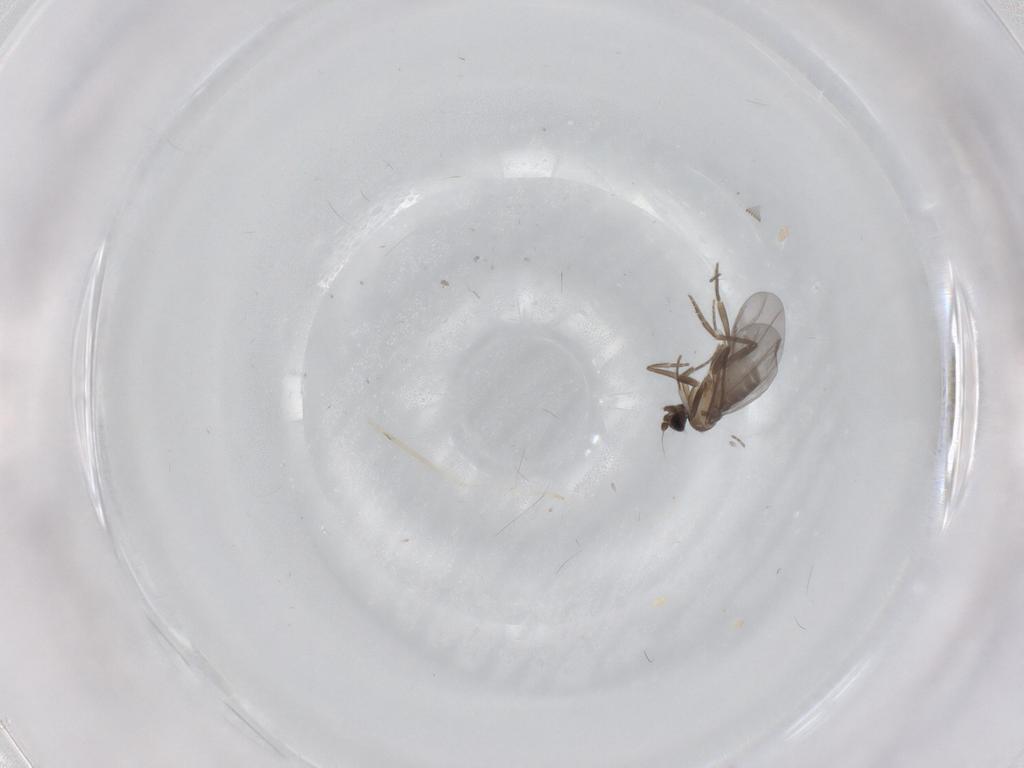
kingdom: Animalia
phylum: Arthropoda
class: Insecta
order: Diptera
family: Cecidomyiidae
